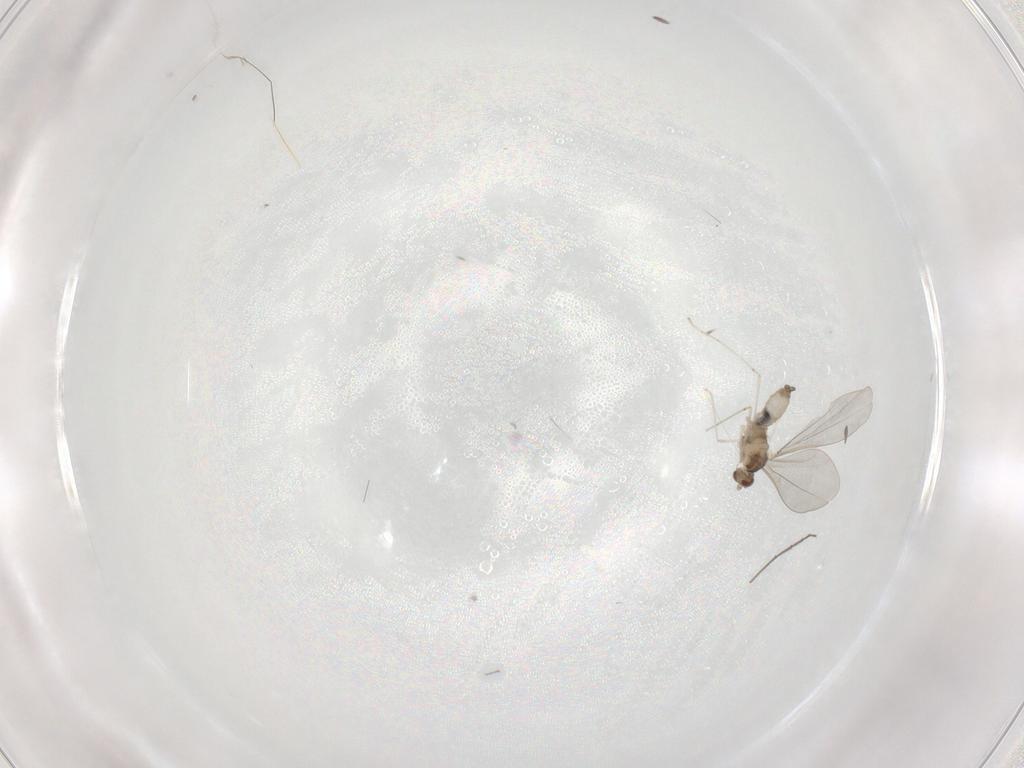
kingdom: Animalia
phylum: Arthropoda
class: Insecta
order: Diptera
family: Cecidomyiidae
